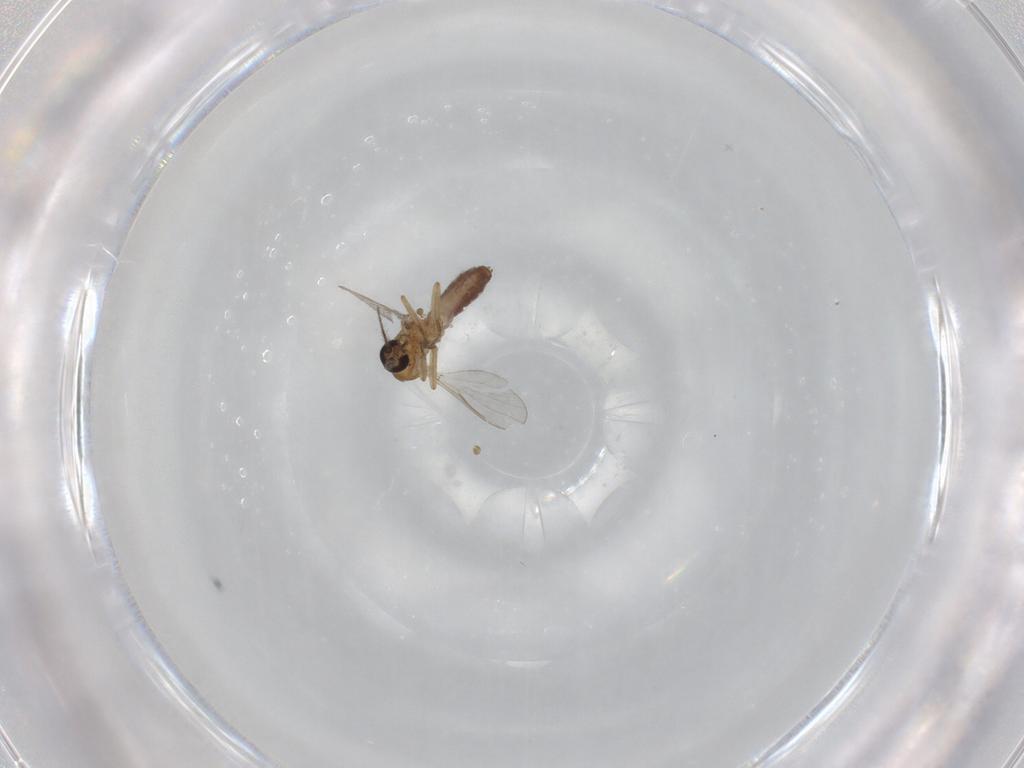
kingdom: Animalia
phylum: Arthropoda
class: Insecta
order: Diptera
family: Ceratopogonidae
